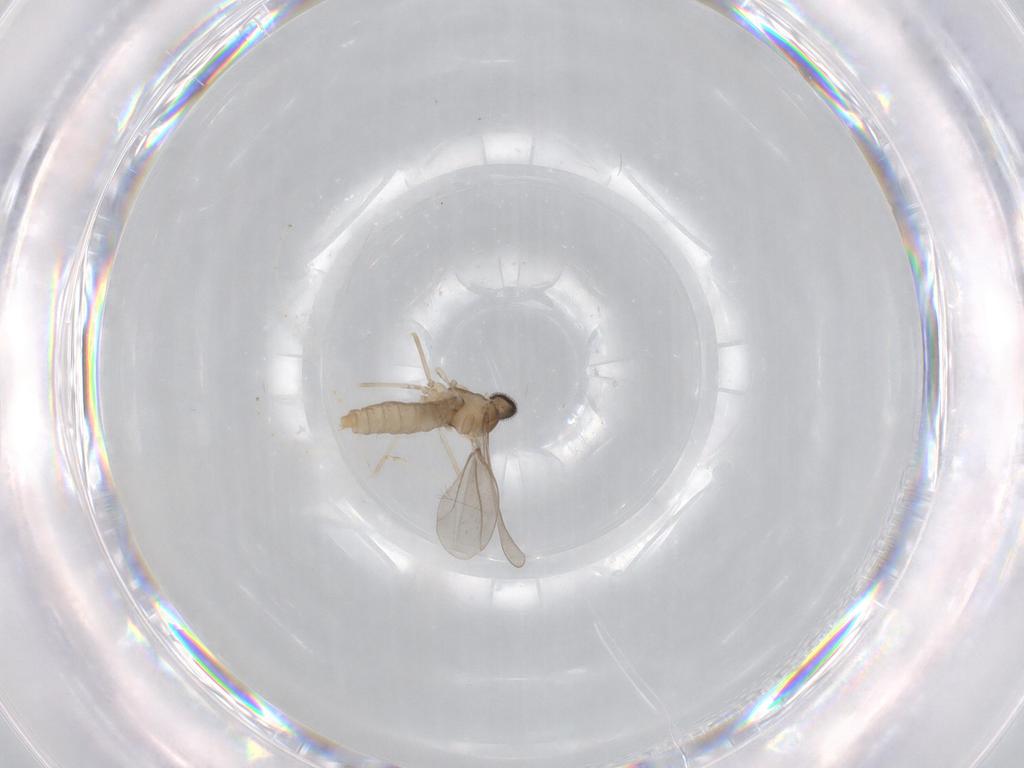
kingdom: Animalia
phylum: Arthropoda
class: Insecta
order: Diptera
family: Cecidomyiidae
